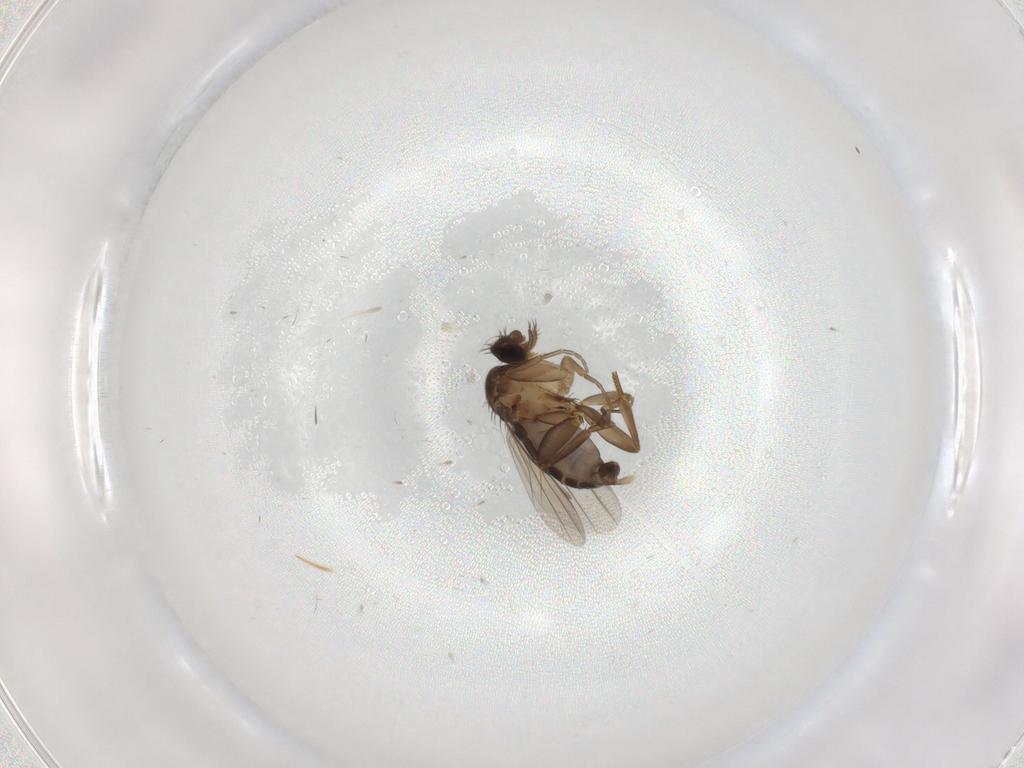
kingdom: Animalia
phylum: Arthropoda
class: Insecta
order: Diptera
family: Phoridae
